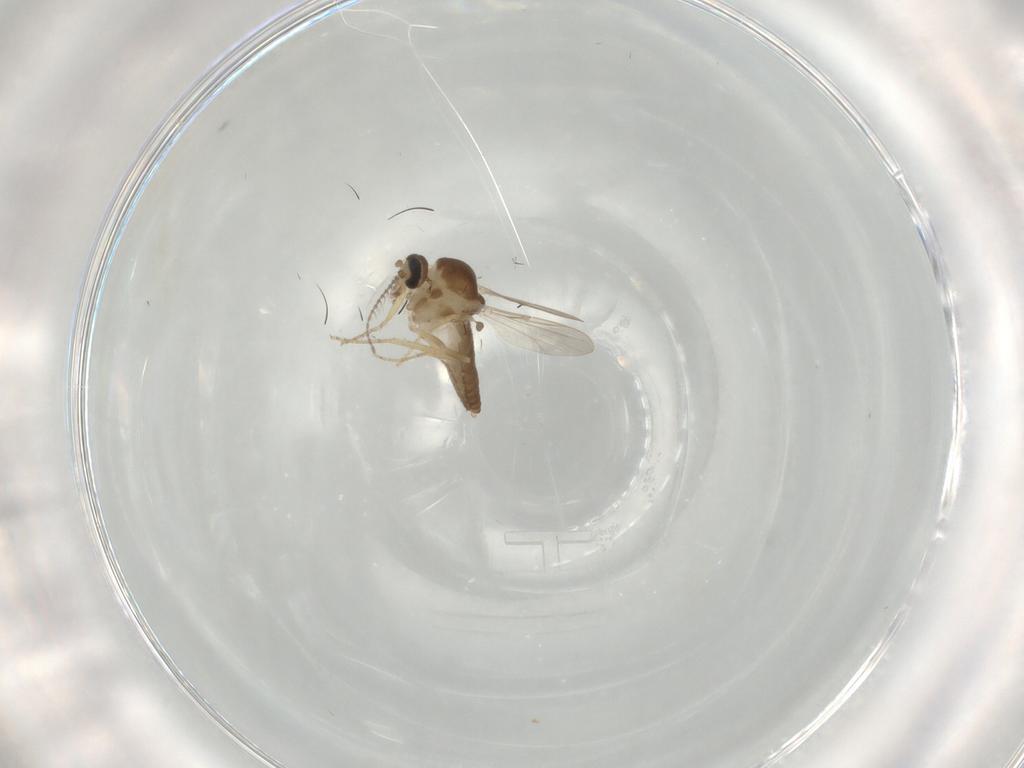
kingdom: Animalia
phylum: Arthropoda
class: Insecta
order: Diptera
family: Ceratopogonidae
